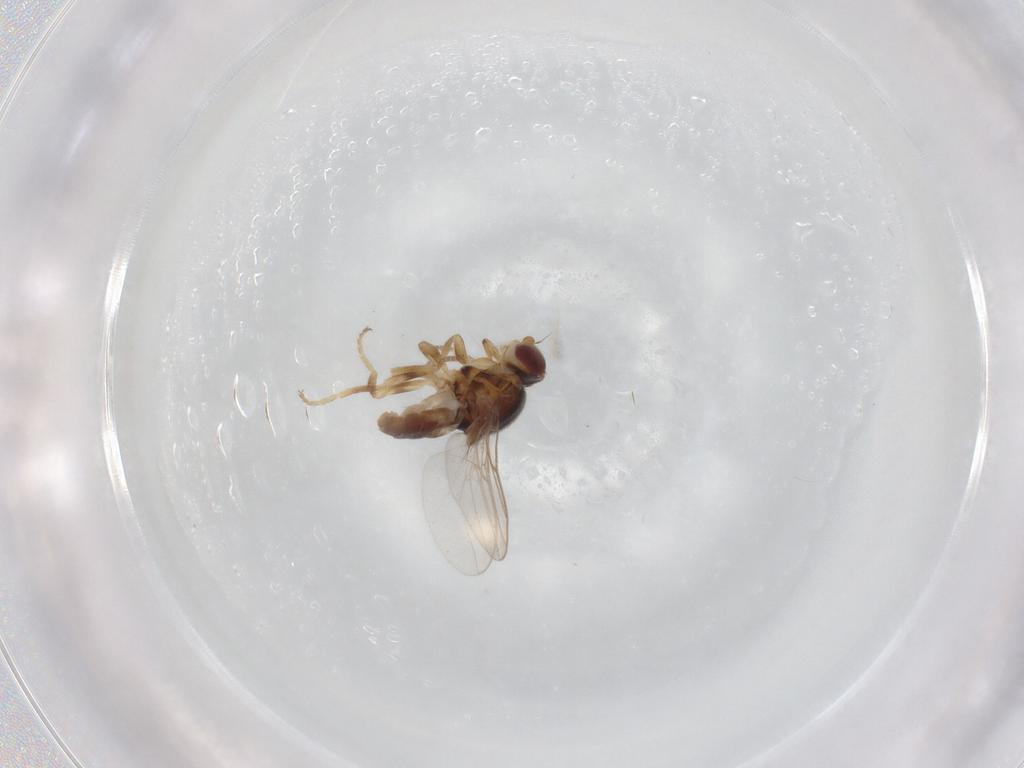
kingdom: Animalia
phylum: Arthropoda
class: Insecta
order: Diptera
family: Chloropidae
